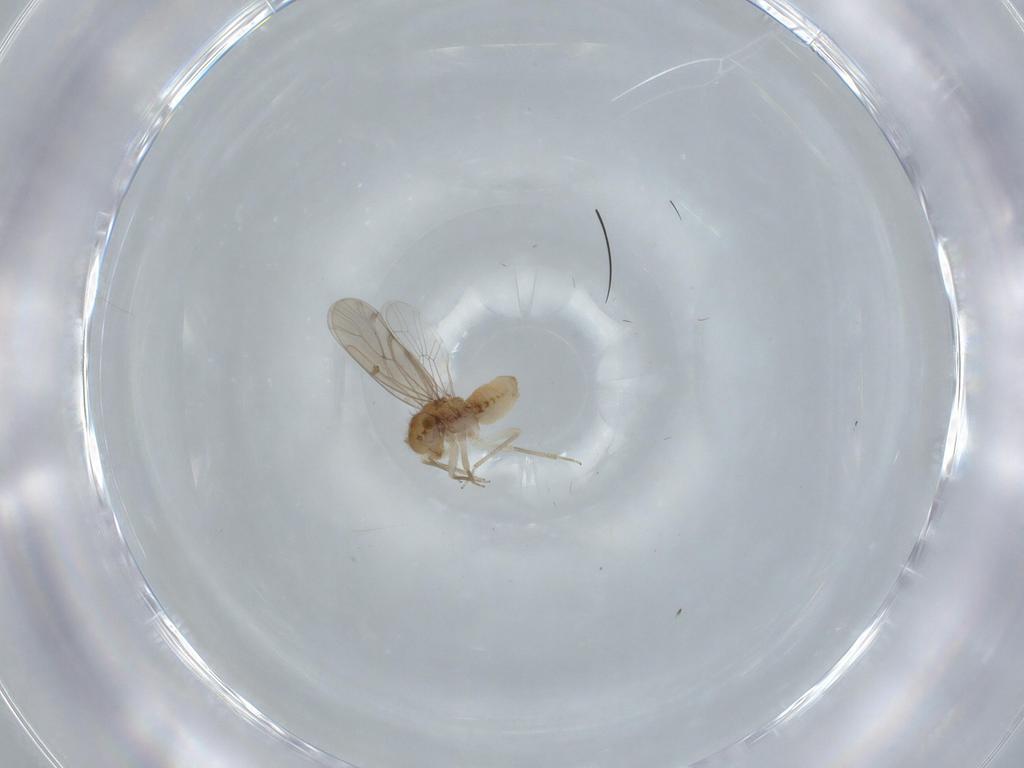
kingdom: Animalia
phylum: Arthropoda
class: Insecta
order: Psocodea
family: Ectopsocidae
